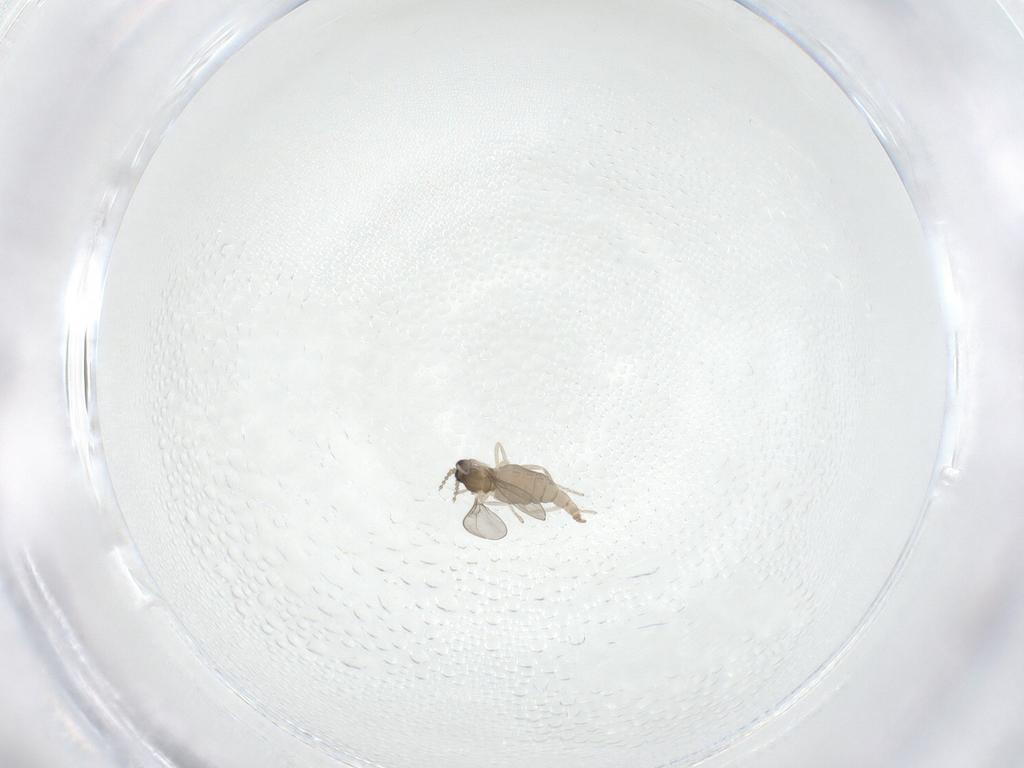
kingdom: Animalia
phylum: Arthropoda
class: Insecta
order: Diptera
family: Cecidomyiidae
